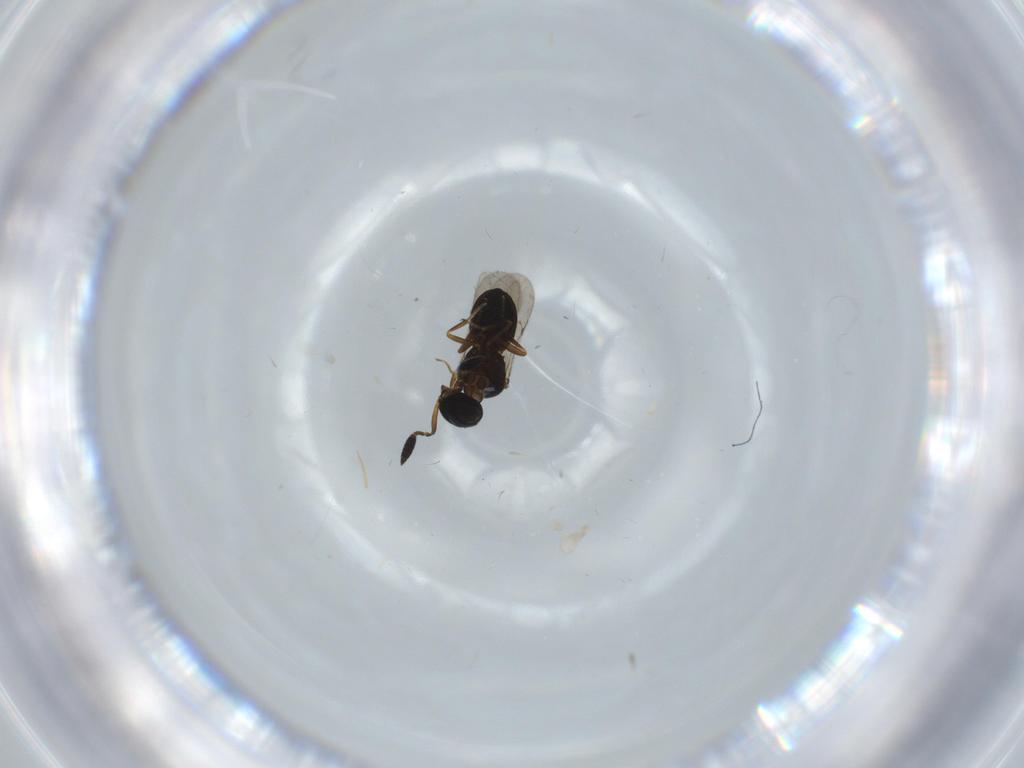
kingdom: Animalia
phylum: Arthropoda
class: Insecta
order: Hymenoptera
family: Scelionidae
